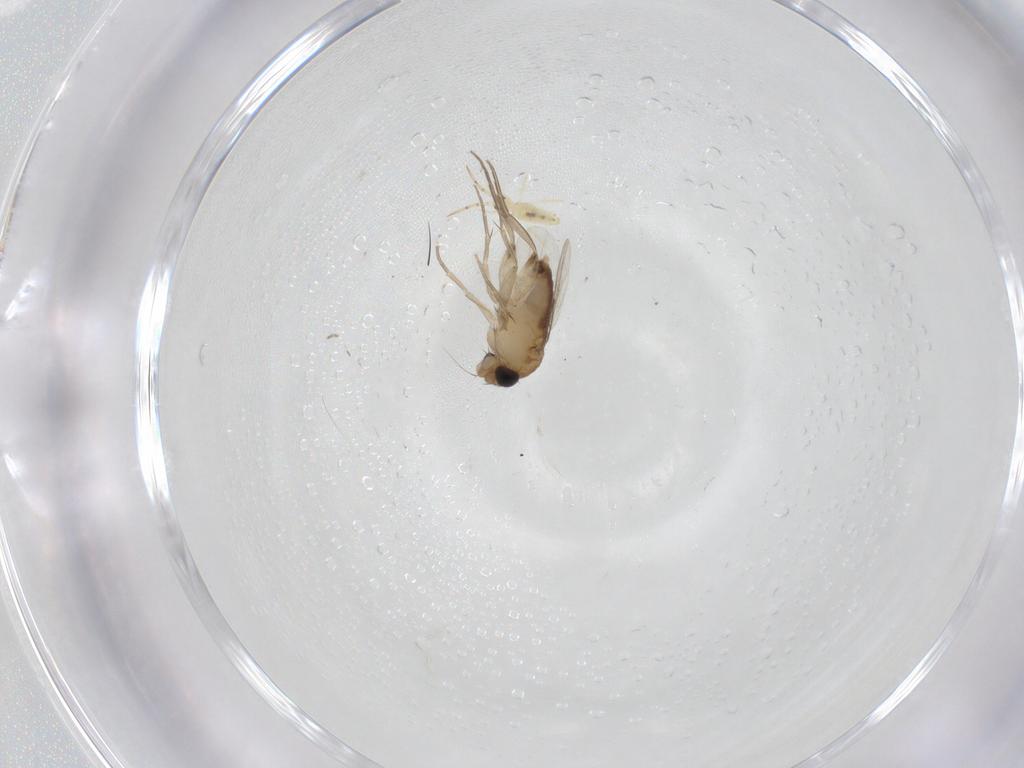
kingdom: Animalia
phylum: Arthropoda
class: Insecta
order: Diptera
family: Phoridae
